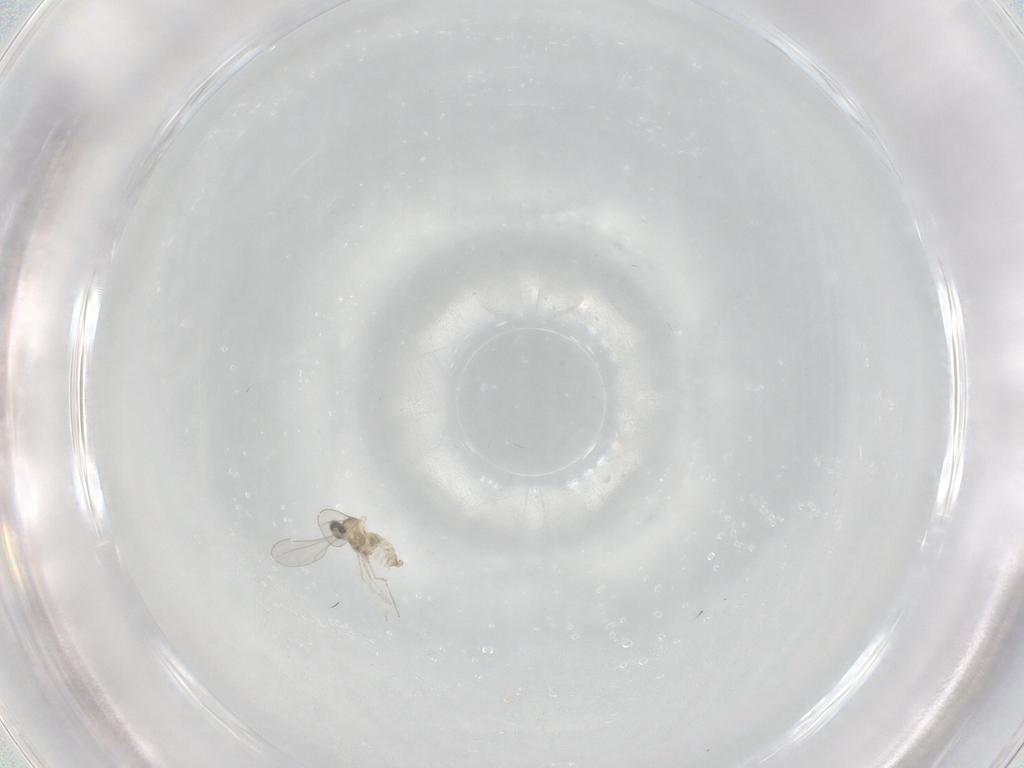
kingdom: Animalia
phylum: Arthropoda
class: Insecta
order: Diptera
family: Cecidomyiidae
